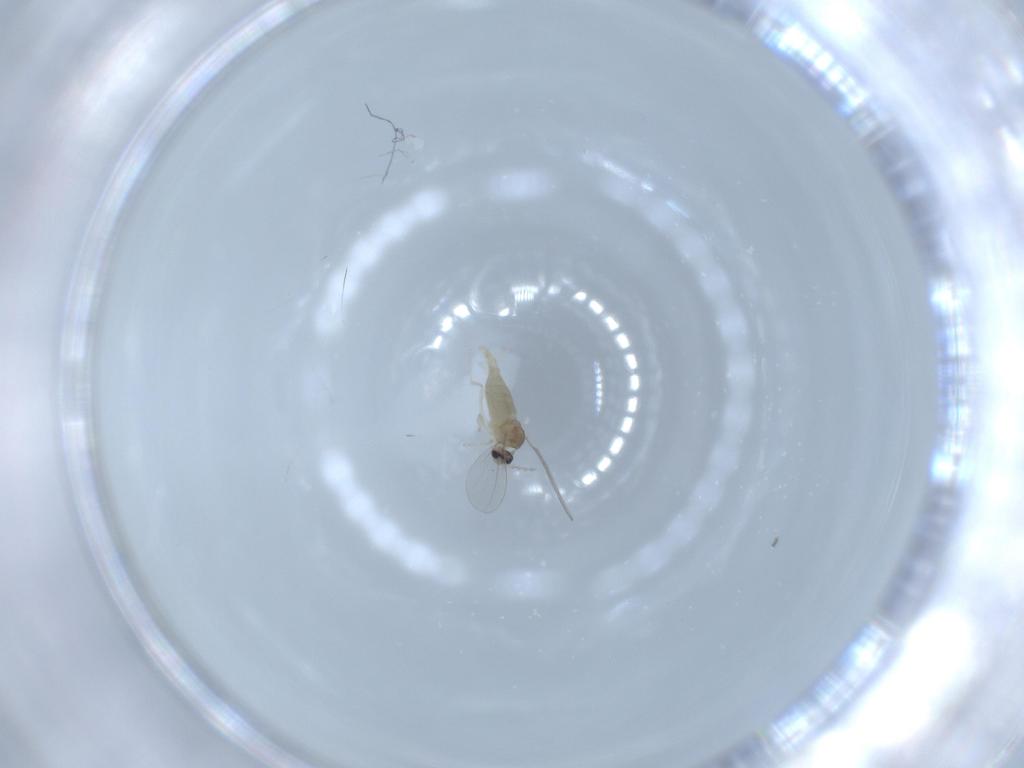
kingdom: Animalia
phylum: Arthropoda
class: Insecta
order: Diptera
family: Cecidomyiidae
